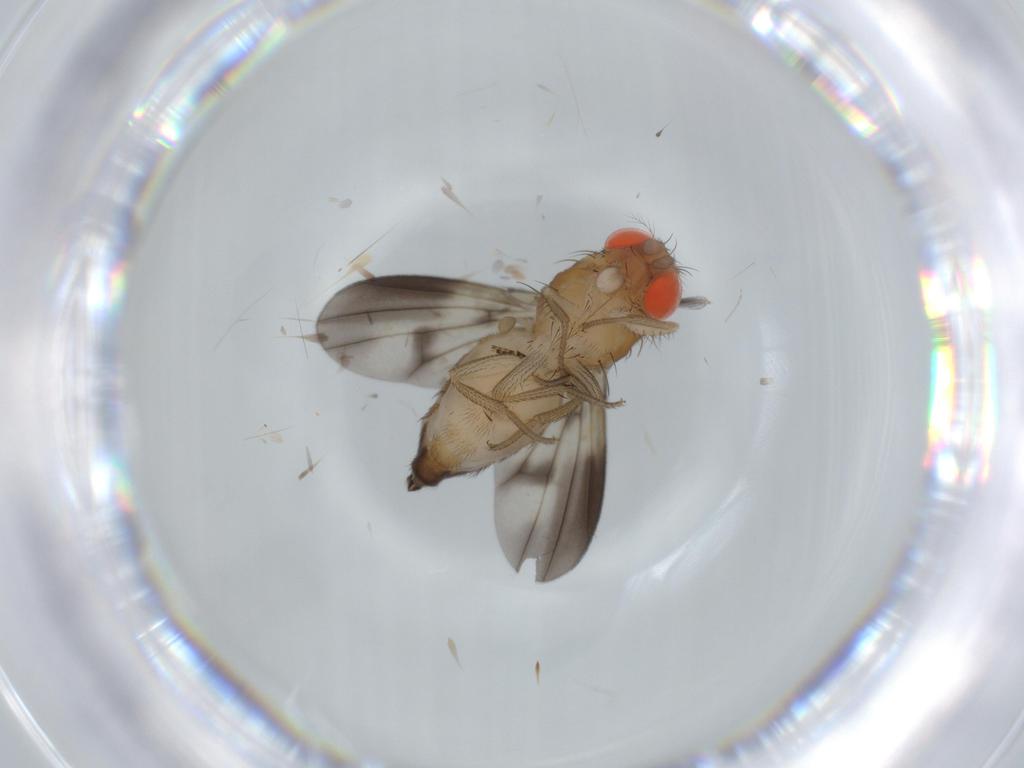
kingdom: Animalia
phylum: Arthropoda
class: Insecta
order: Diptera
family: Drosophilidae
